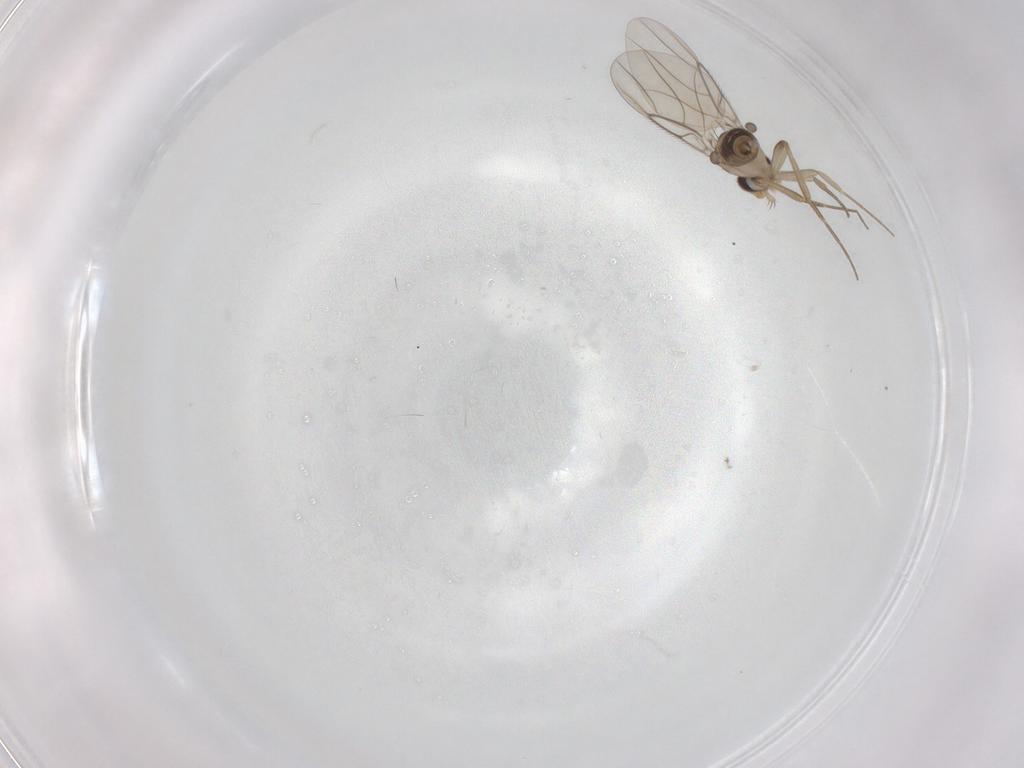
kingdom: Animalia
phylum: Arthropoda
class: Insecta
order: Diptera
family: Phoridae
